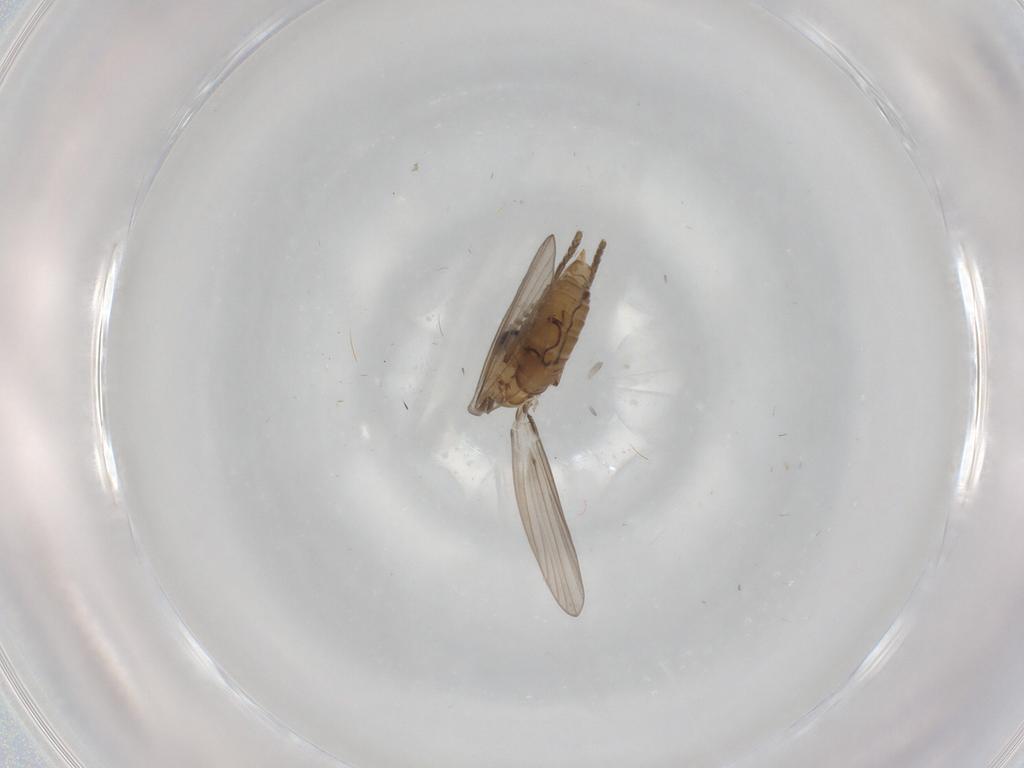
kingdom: Animalia
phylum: Arthropoda
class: Insecta
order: Diptera
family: Psychodidae
